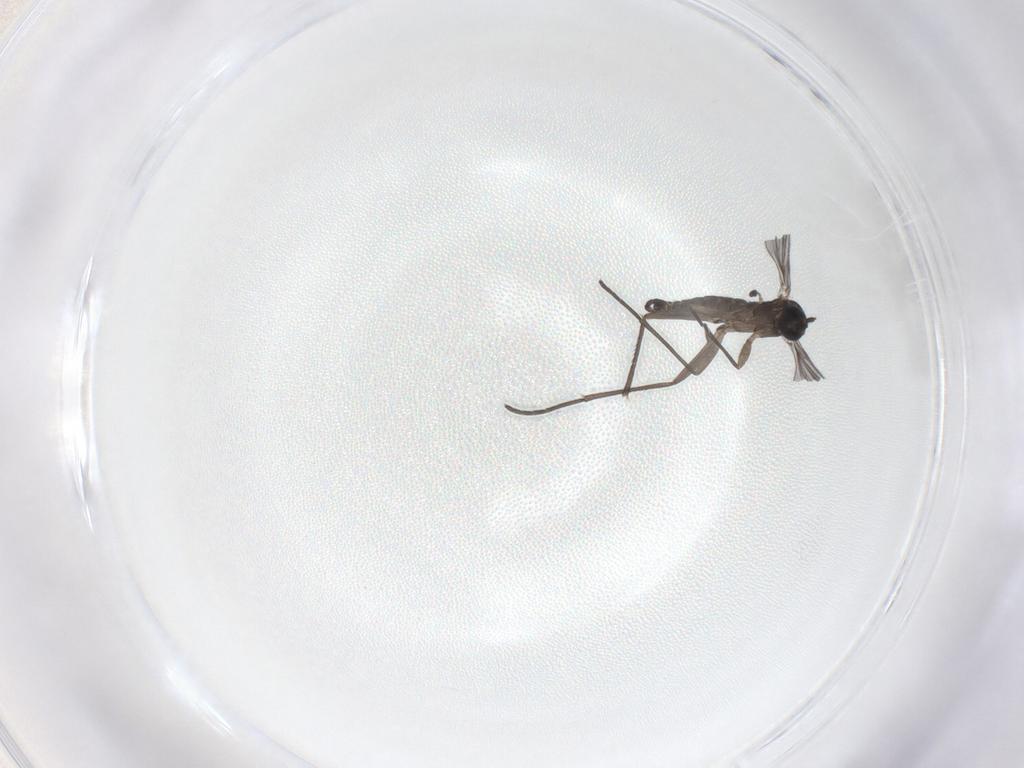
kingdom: Animalia
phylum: Arthropoda
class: Insecta
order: Diptera
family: Sciaridae
